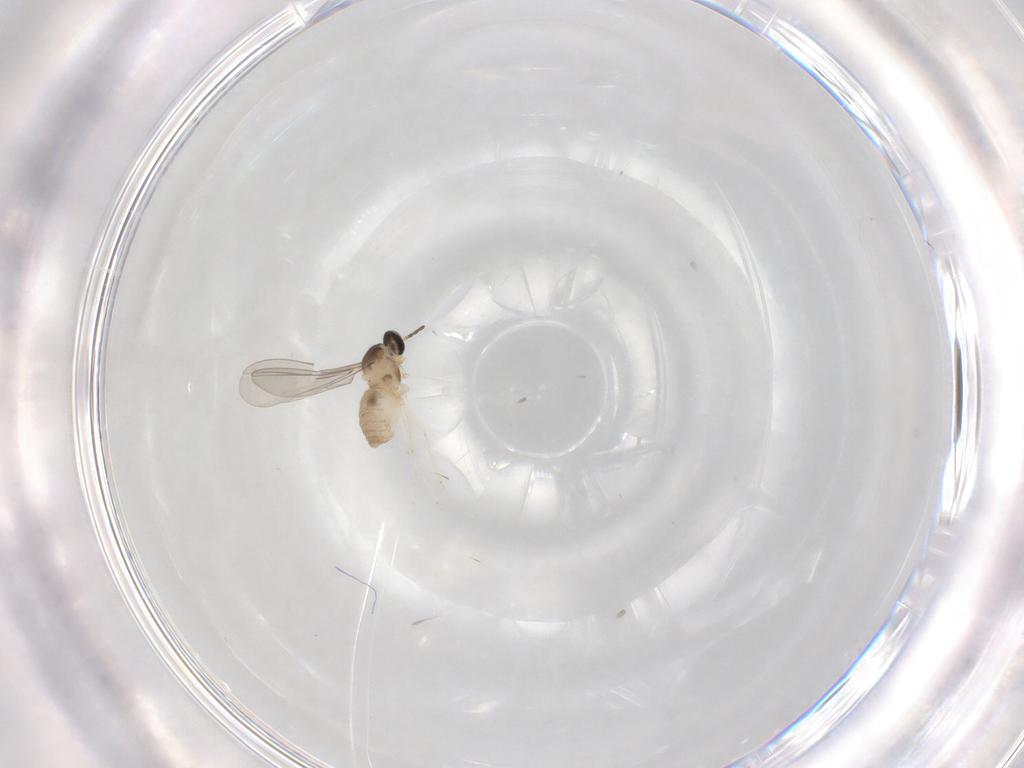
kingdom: Animalia
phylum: Arthropoda
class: Insecta
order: Diptera
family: Cecidomyiidae
